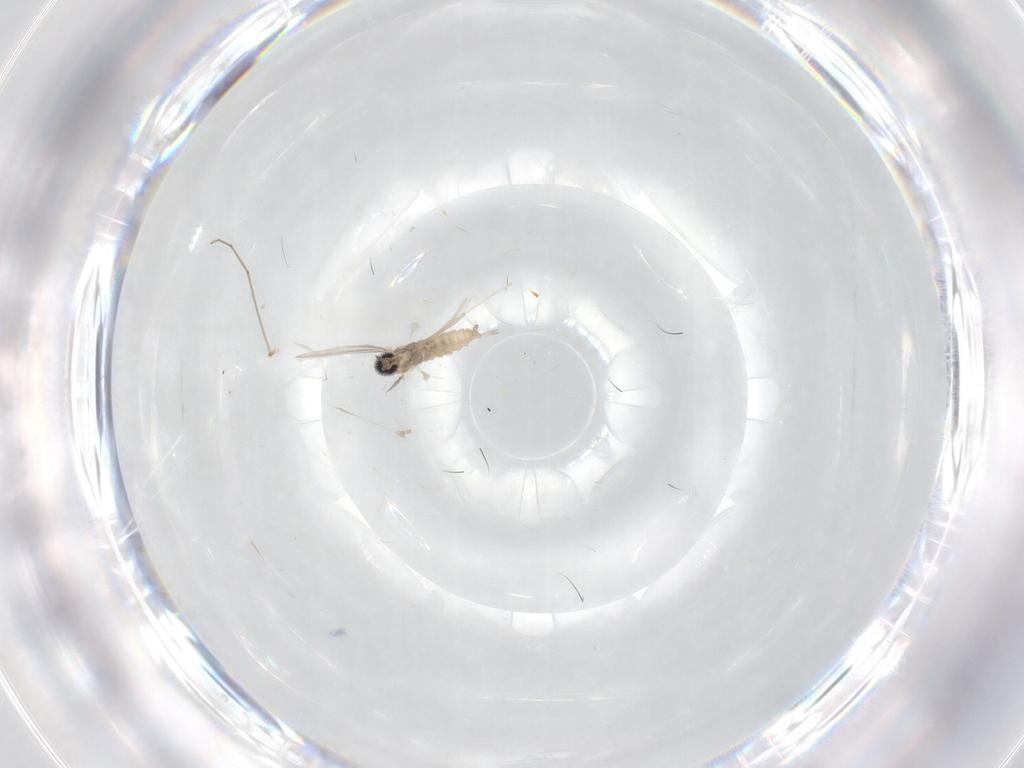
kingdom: Animalia
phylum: Arthropoda
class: Insecta
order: Diptera
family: Cecidomyiidae
